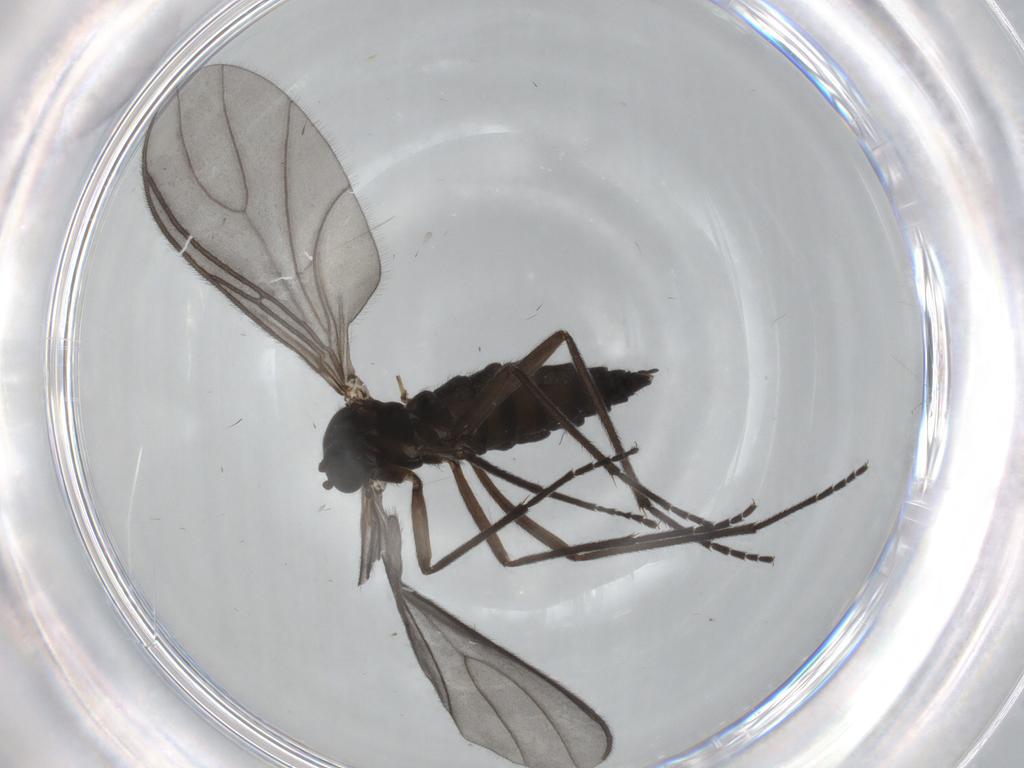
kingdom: Animalia
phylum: Arthropoda
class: Insecta
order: Diptera
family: Sciaridae
